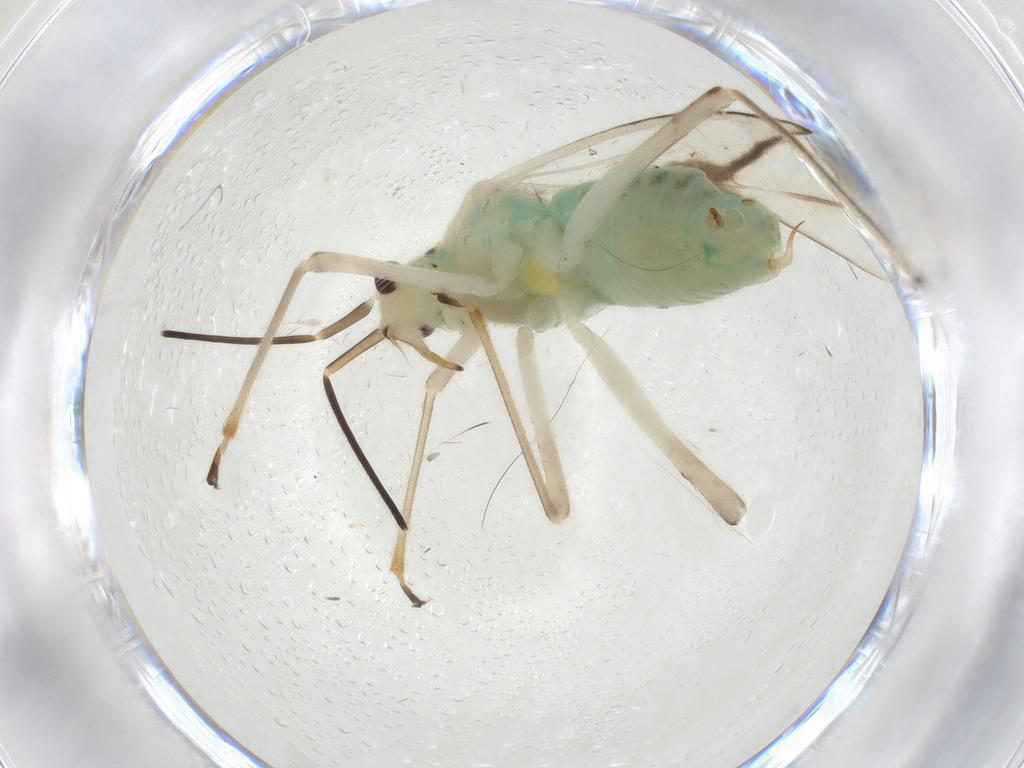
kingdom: Animalia
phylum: Arthropoda
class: Insecta
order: Hemiptera
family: Miridae
